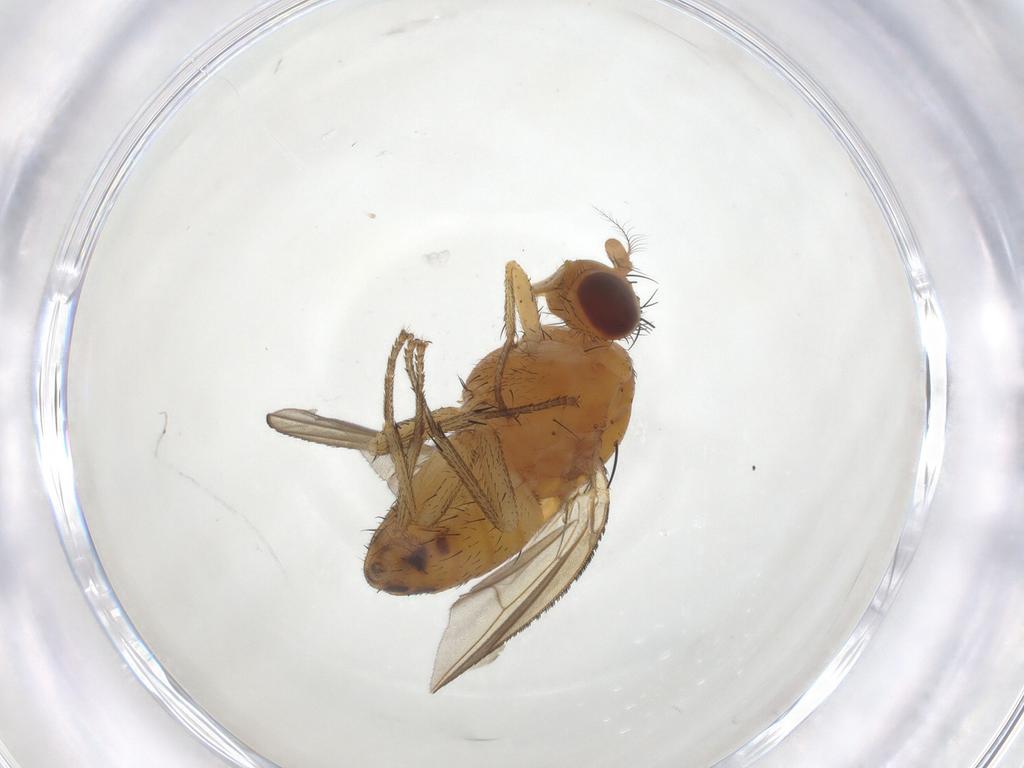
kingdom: Animalia
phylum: Arthropoda
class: Insecta
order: Diptera
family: Lauxaniidae
